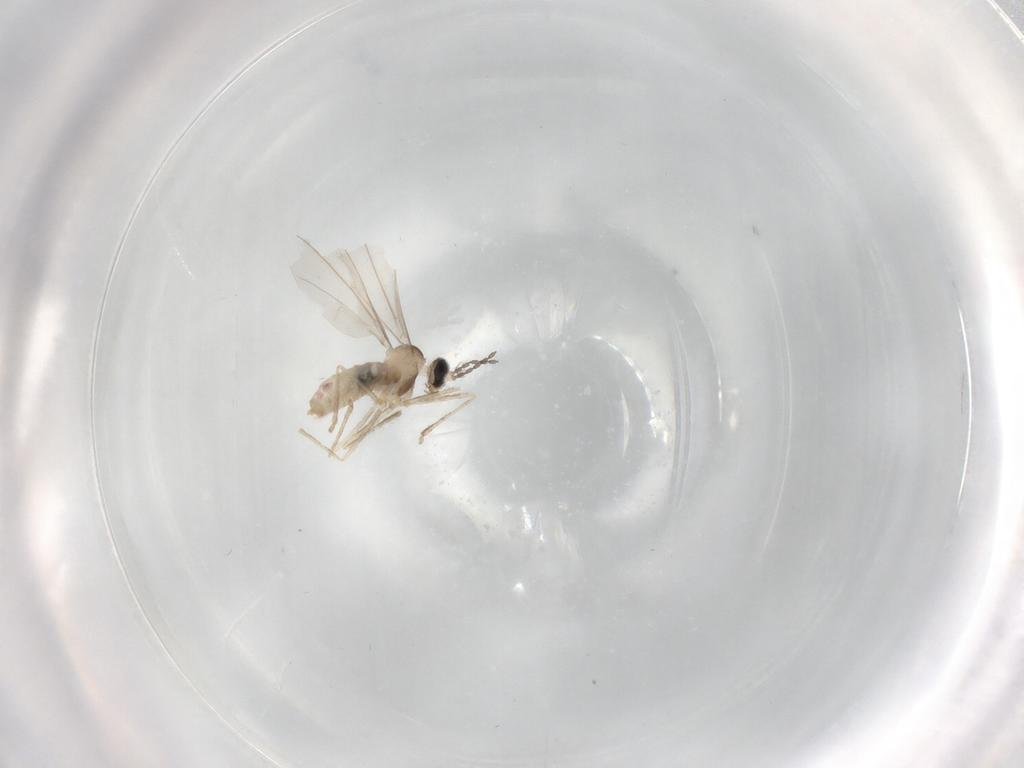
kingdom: Animalia
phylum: Arthropoda
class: Insecta
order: Diptera
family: Cecidomyiidae
